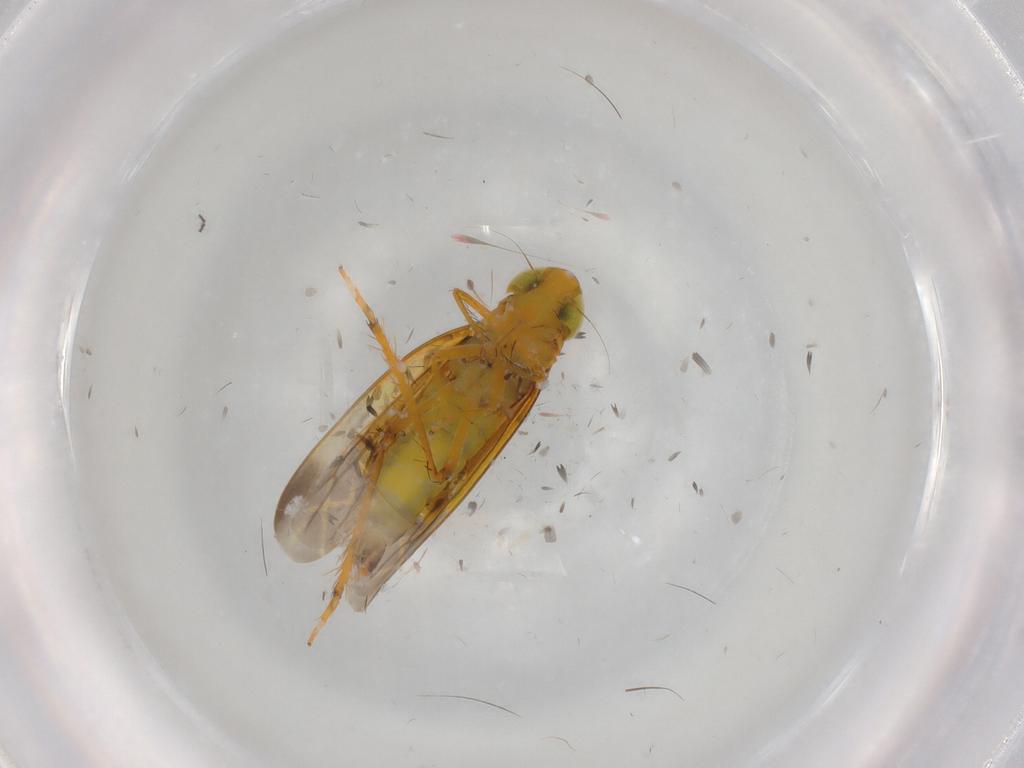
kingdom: Animalia
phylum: Arthropoda
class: Insecta
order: Hemiptera
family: Cicadellidae
